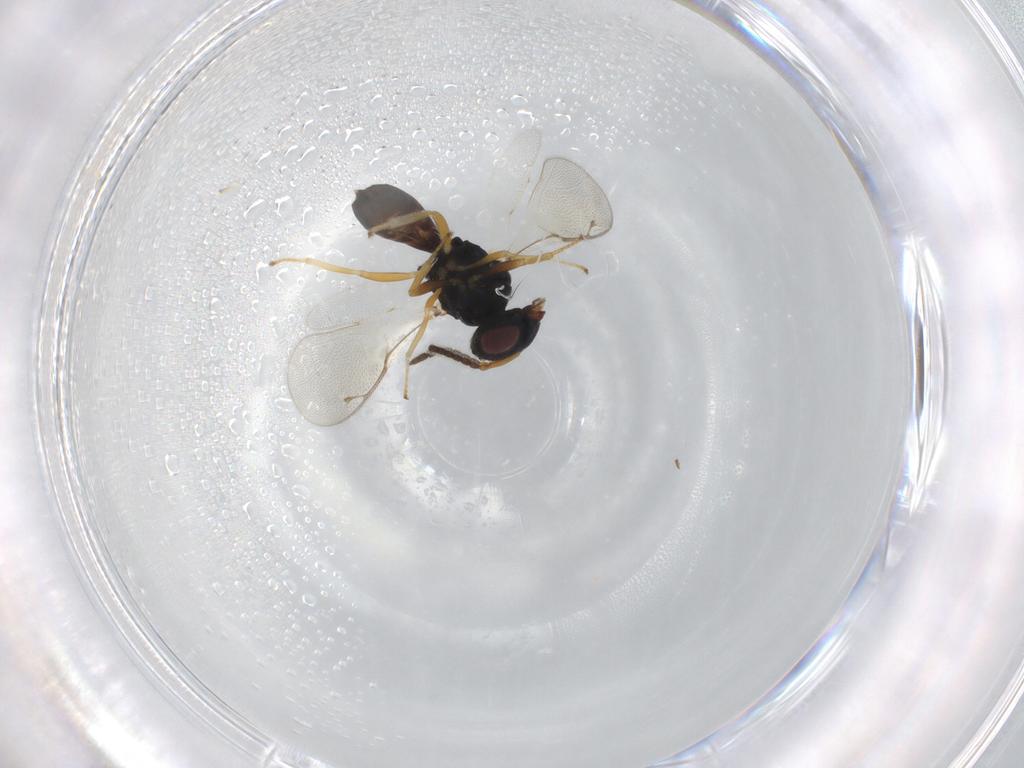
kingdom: Animalia
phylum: Arthropoda
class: Insecta
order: Hymenoptera
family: Pteromalidae
